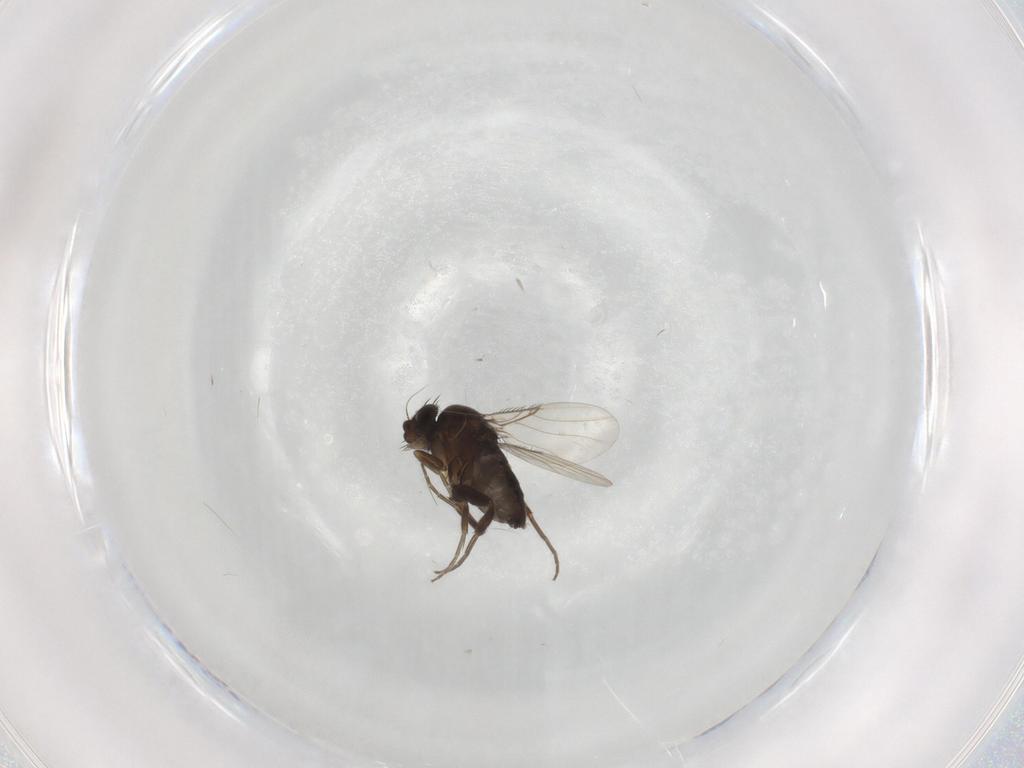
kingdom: Animalia
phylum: Arthropoda
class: Insecta
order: Diptera
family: Phoridae
